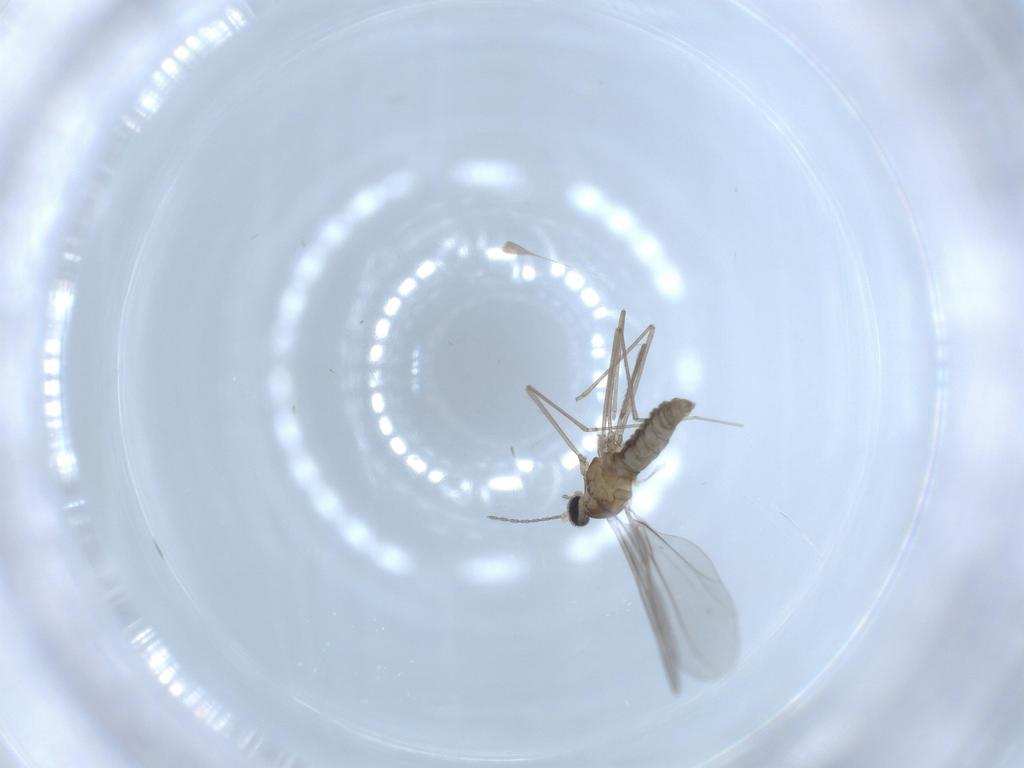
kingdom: Animalia
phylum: Arthropoda
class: Insecta
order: Diptera
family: Cecidomyiidae
